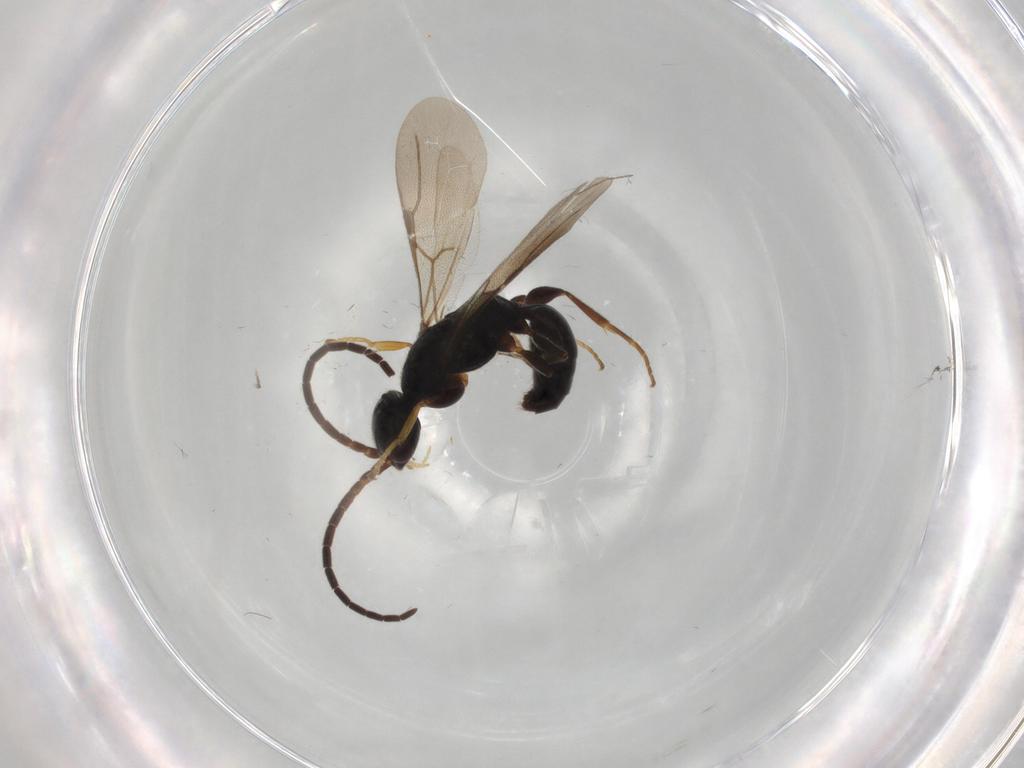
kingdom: Animalia
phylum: Arthropoda
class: Insecta
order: Hymenoptera
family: Bethylidae
